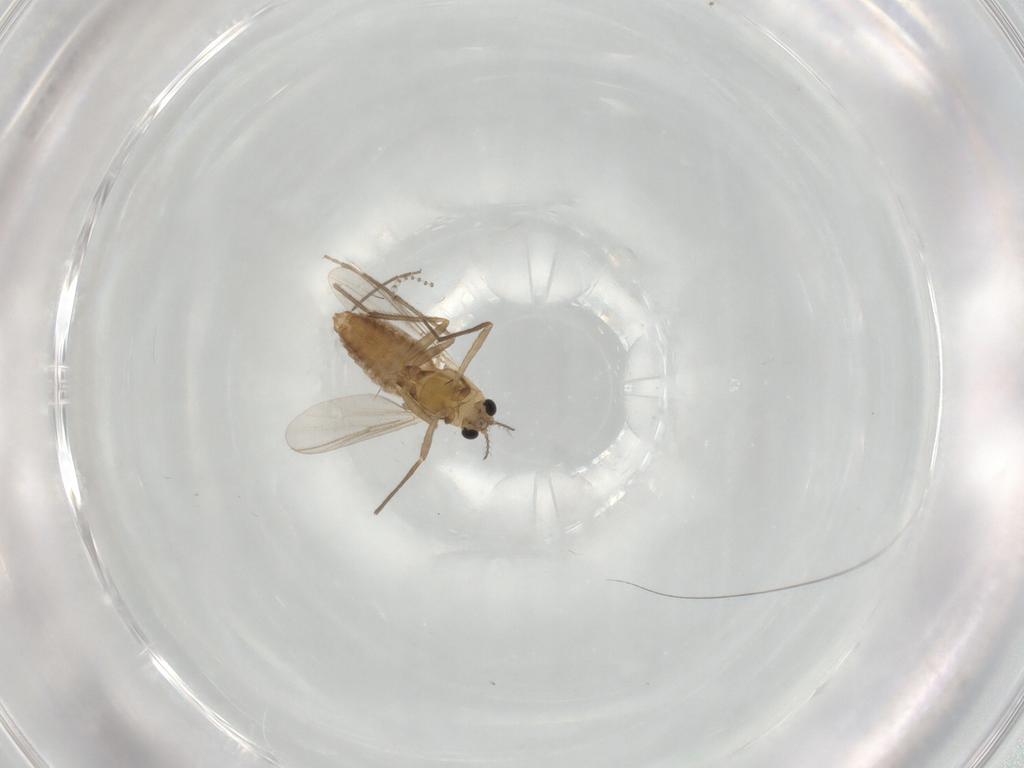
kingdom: Animalia
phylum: Arthropoda
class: Insecta
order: Diptera
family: Chironomidae
